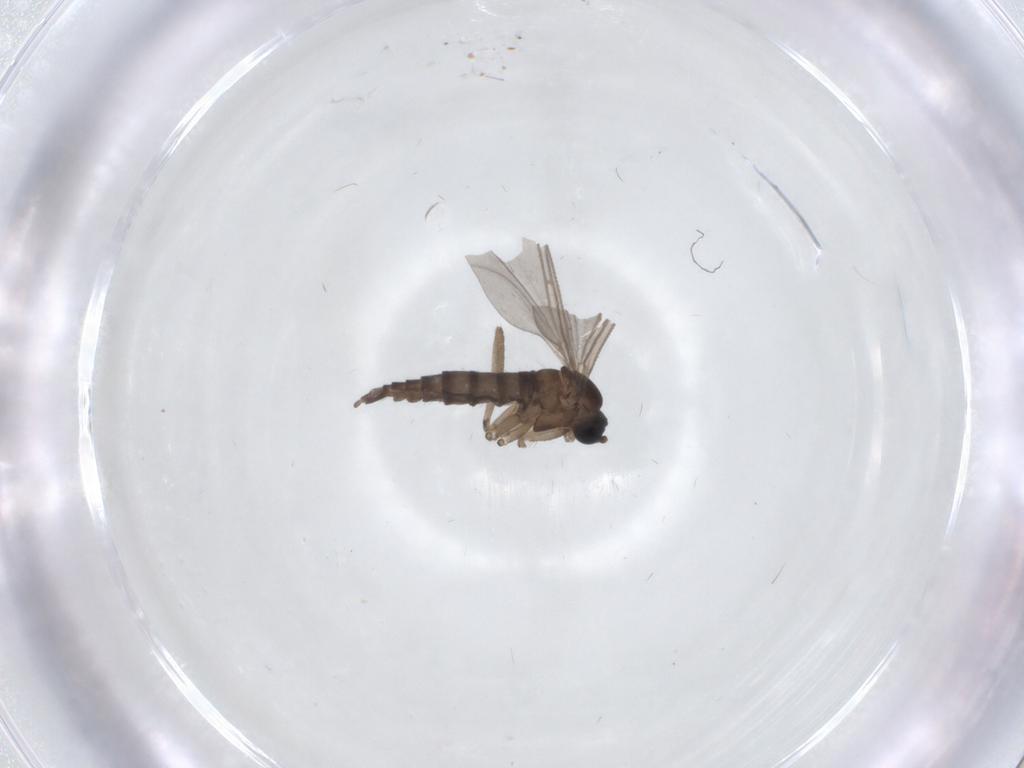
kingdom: Animalia
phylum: Arthropoda
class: Insecta
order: Diptera
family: Sciaridae
